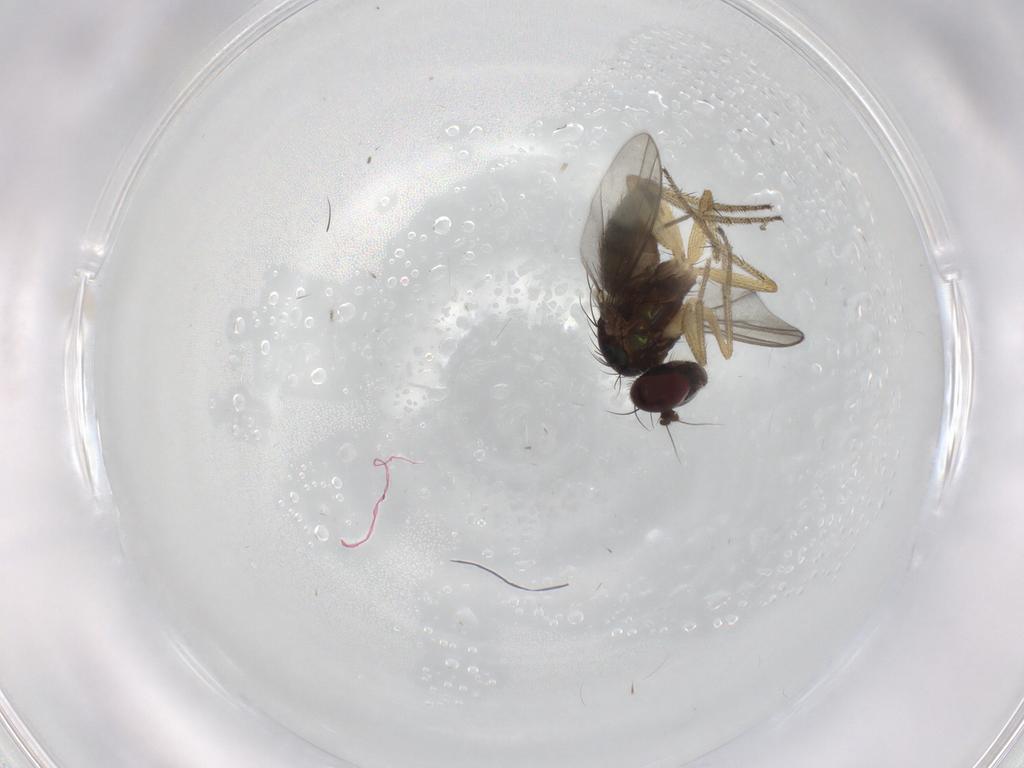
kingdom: Animalia
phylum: Arthropoda
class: Insecta
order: Diptera
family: Dolichopodidae
